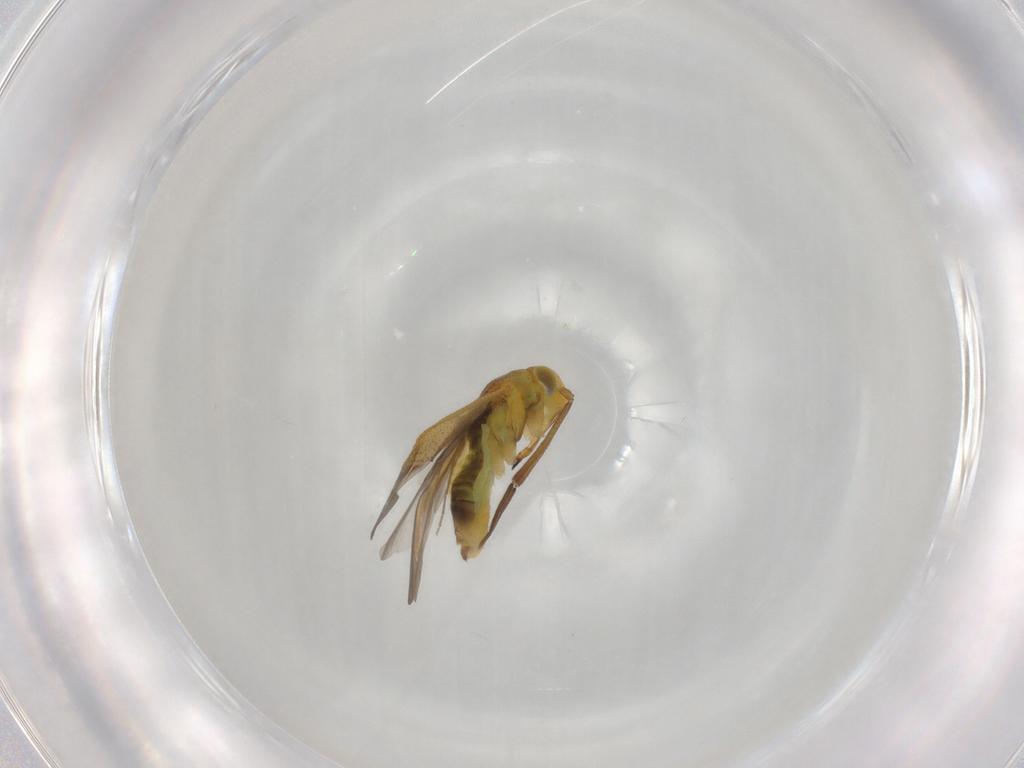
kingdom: Animalia
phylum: Arthropoda
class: Insecta
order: Hemiptera
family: Miridae
